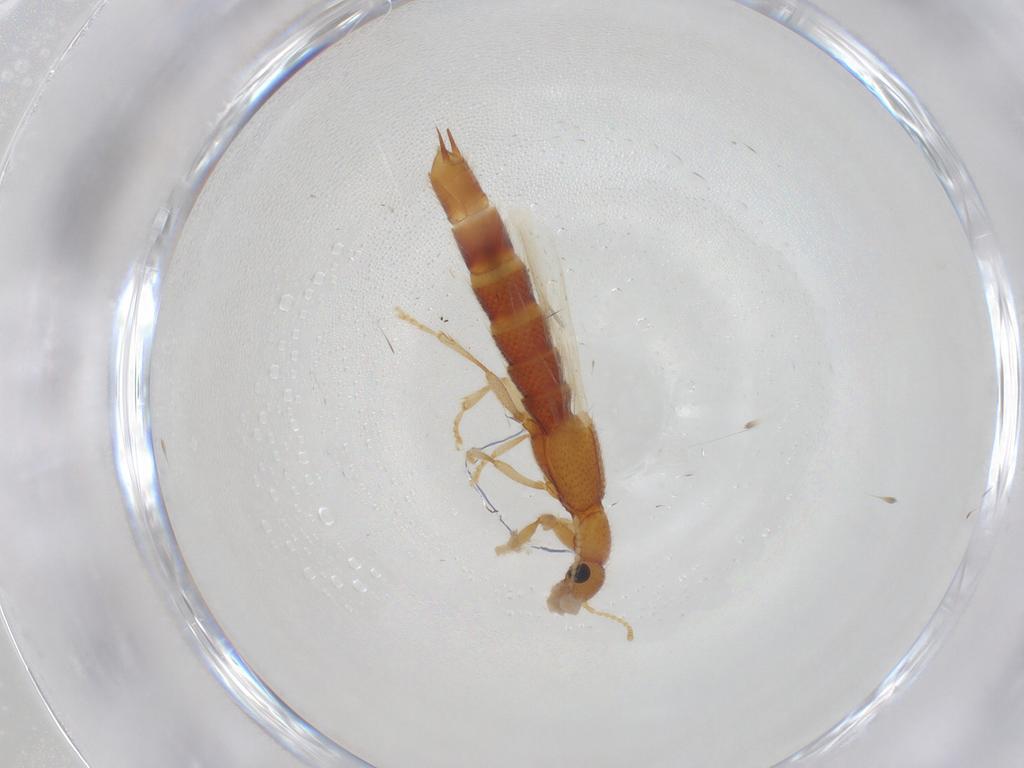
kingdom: Animalia
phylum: Arthropoda
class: Insecta
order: Coleoptera
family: Staphylinidae
